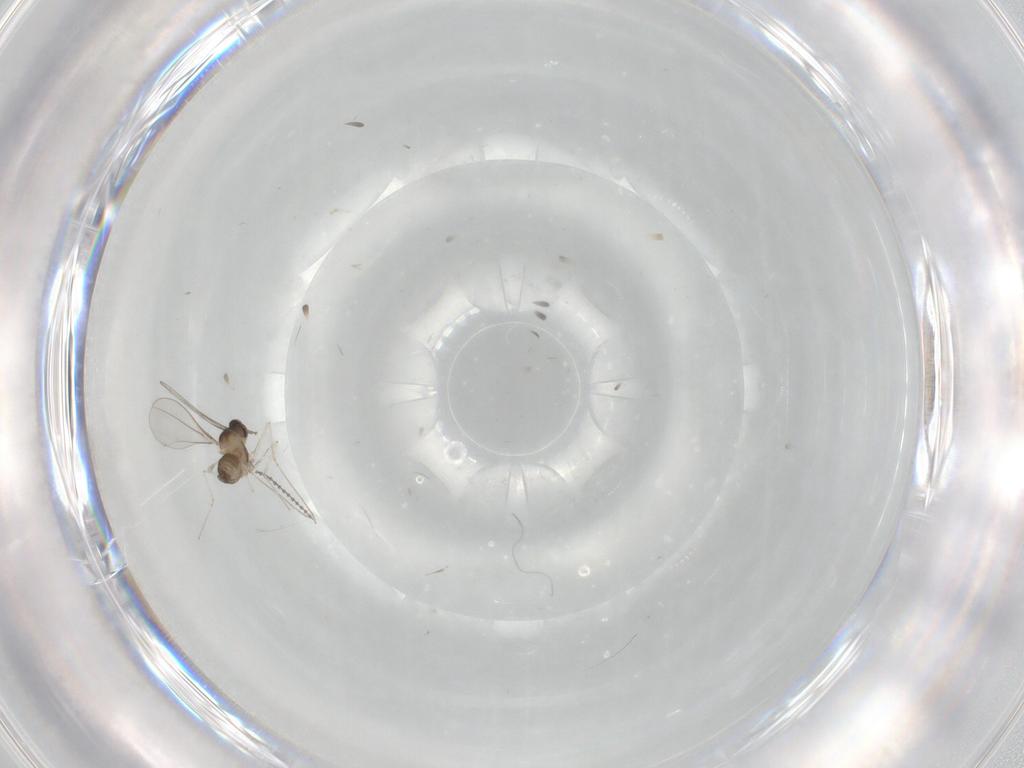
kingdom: Animalia
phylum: Arthropoda
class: Insecta
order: Diptera
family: Cecidomyiidae
